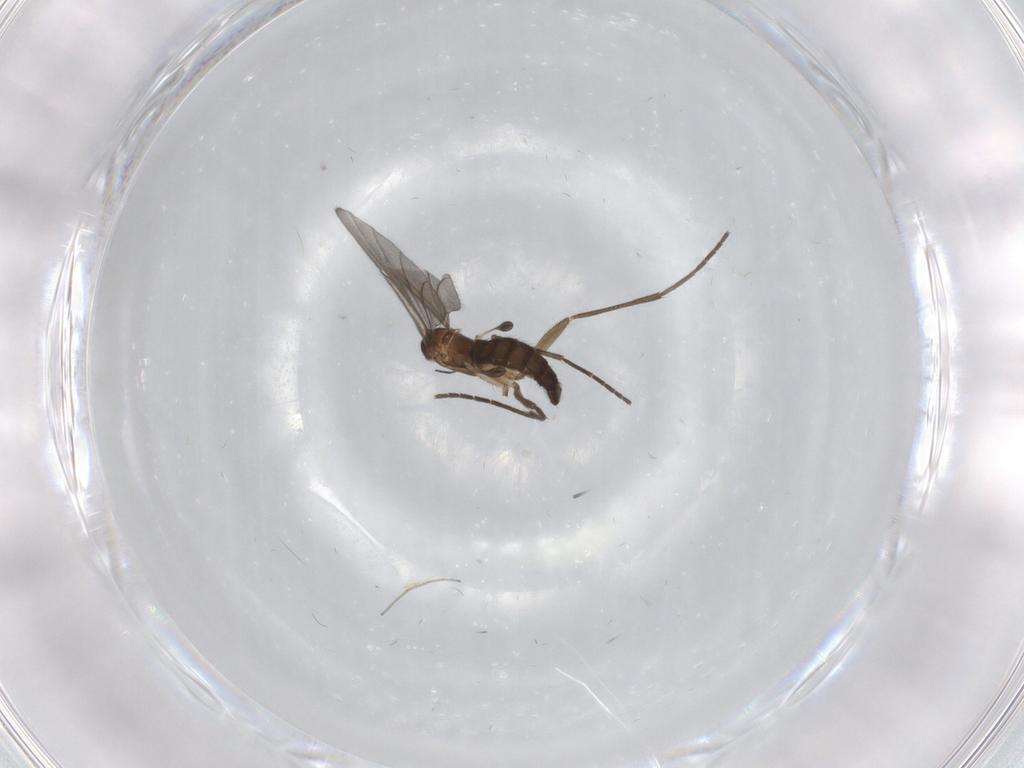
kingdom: Animalia
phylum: Arthropoda
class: Insecta
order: Diptera
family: Sciaridae
